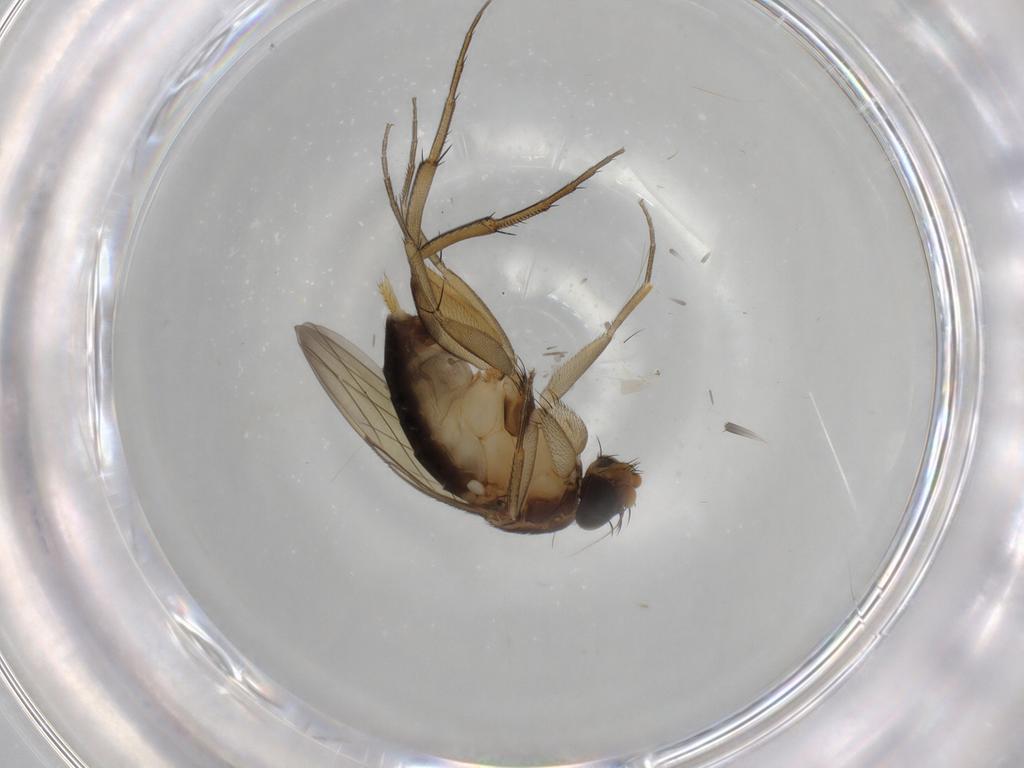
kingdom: Animalia
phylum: Arthropoda
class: Insecta
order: Diptera
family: Phoridae
